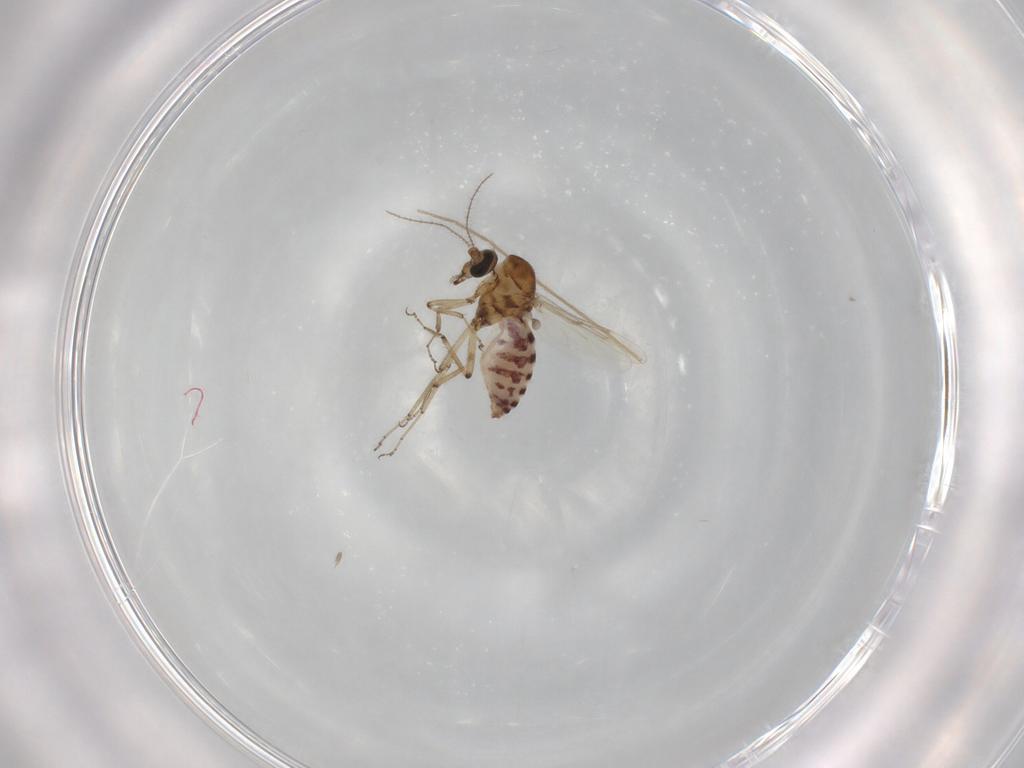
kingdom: Animalia
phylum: Arthropoda
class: Insecta
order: Diptera
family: Ceratopogonidae
